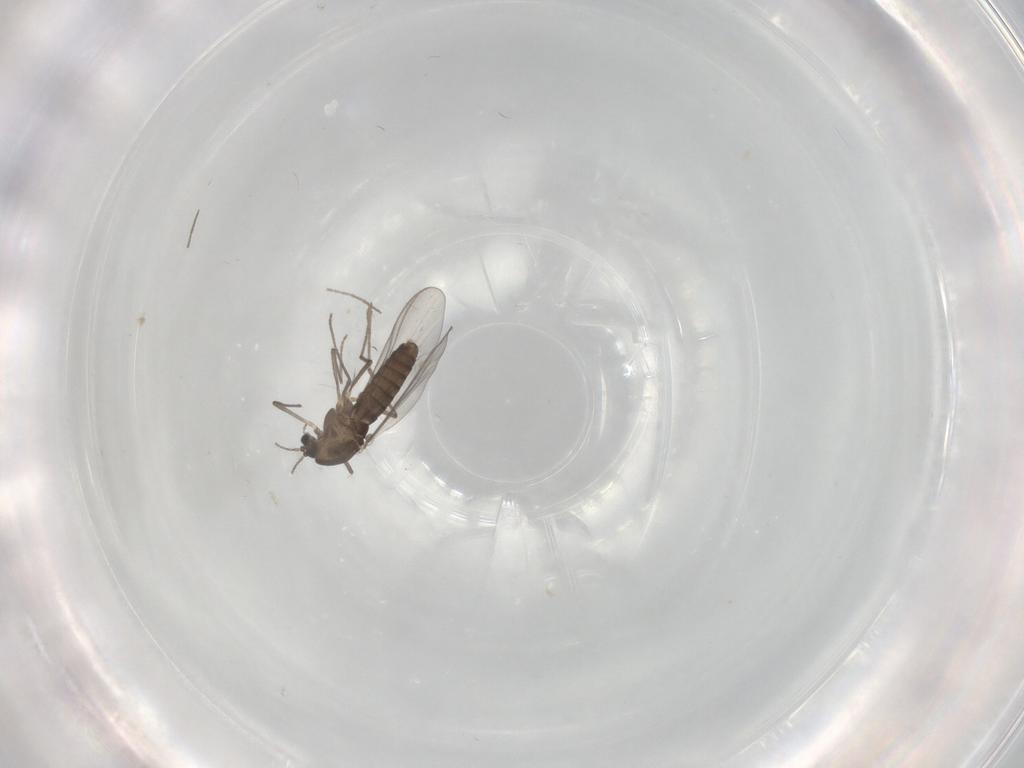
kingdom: Animalia
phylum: Arthropoda
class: Insecta
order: Diptera
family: Chironomidae
